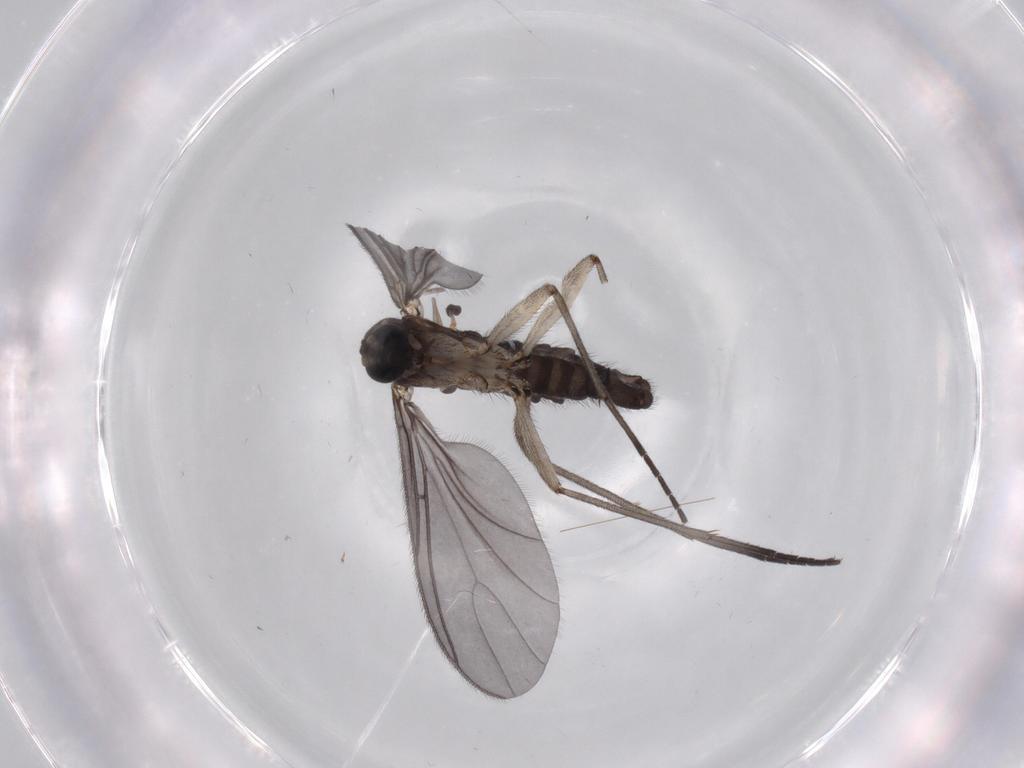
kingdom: Animalia
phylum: Arthropoda
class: Insecta
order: Diptera
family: Sciaridae
